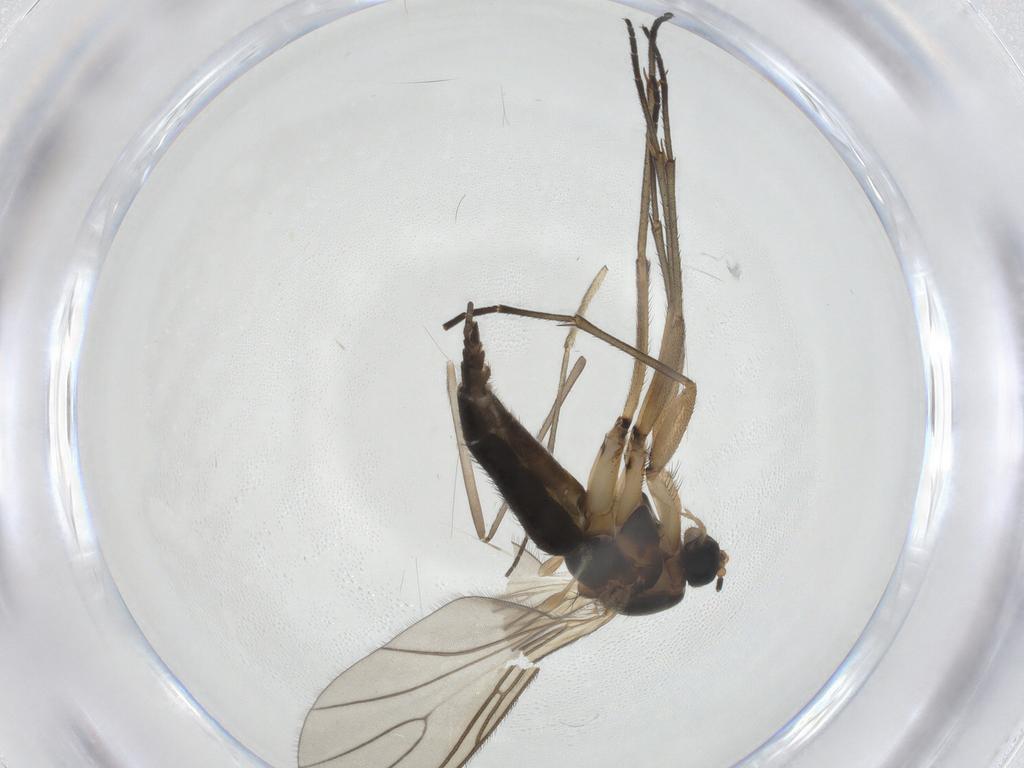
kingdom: Animalia
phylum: Arthropoda
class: Insecta
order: Diptera
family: Sciaridae
